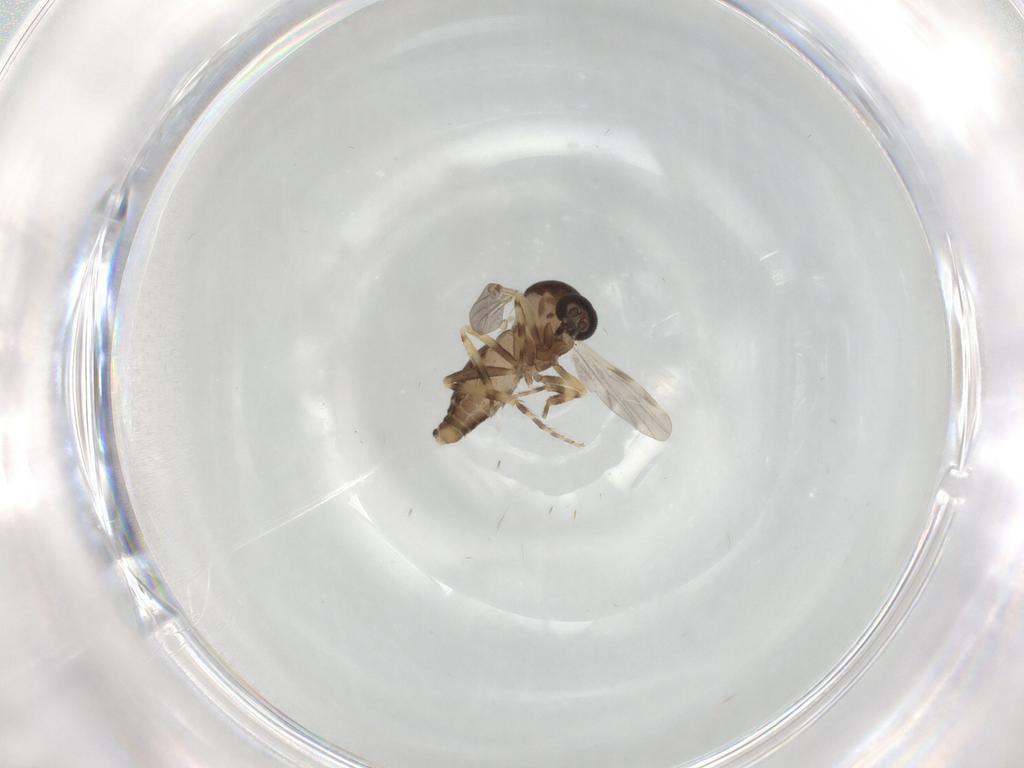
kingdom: Animalia
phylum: Arthropoda
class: Insecta
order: Diptera
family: Ceratopogonidae
